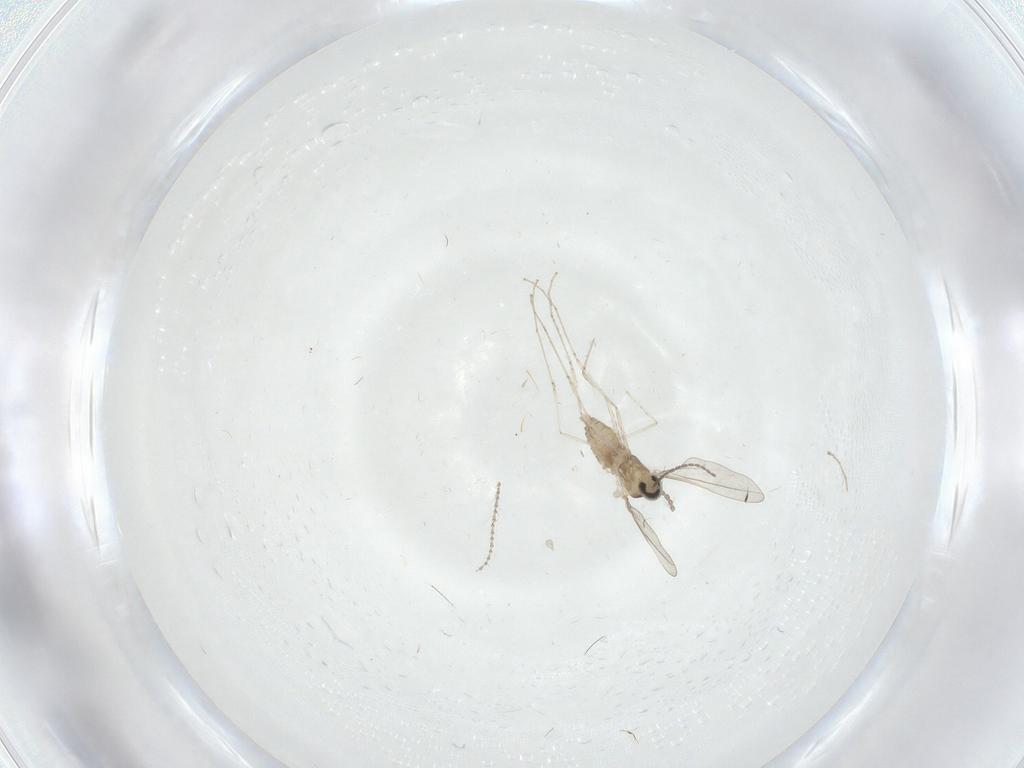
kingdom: Animalia
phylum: Arthropoda
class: Insecta
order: Diptera
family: Cecidomyiidae
